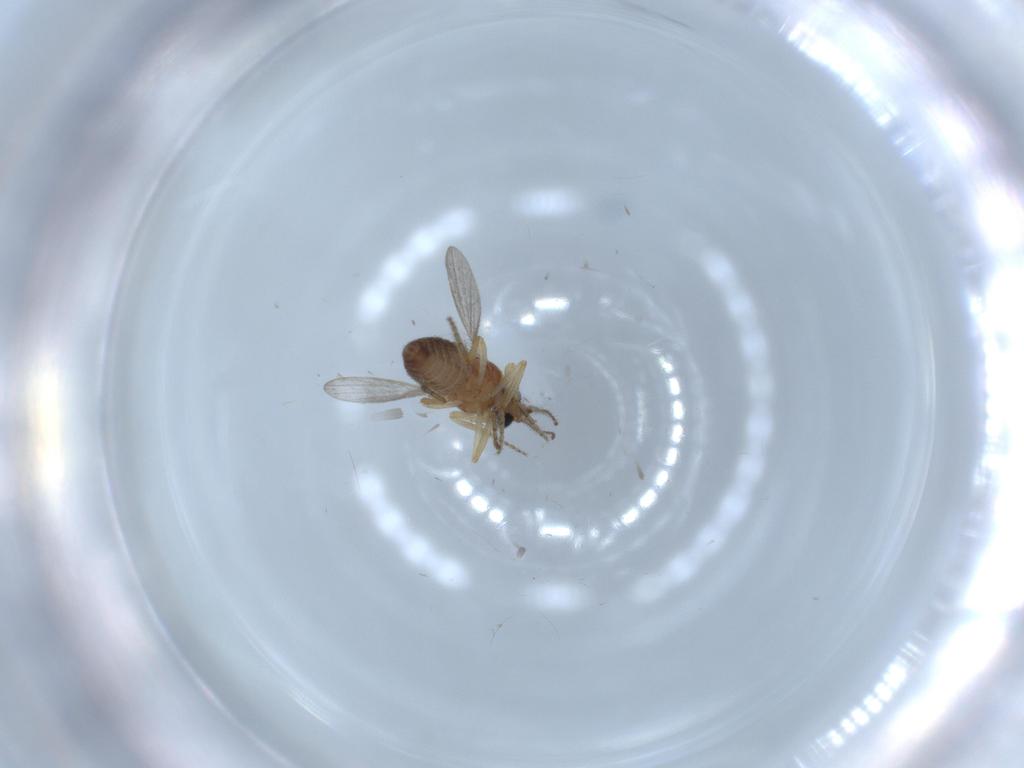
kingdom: Animalia
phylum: Arthropoda
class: Insecta
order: Diptera
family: Ceratopogonidae
